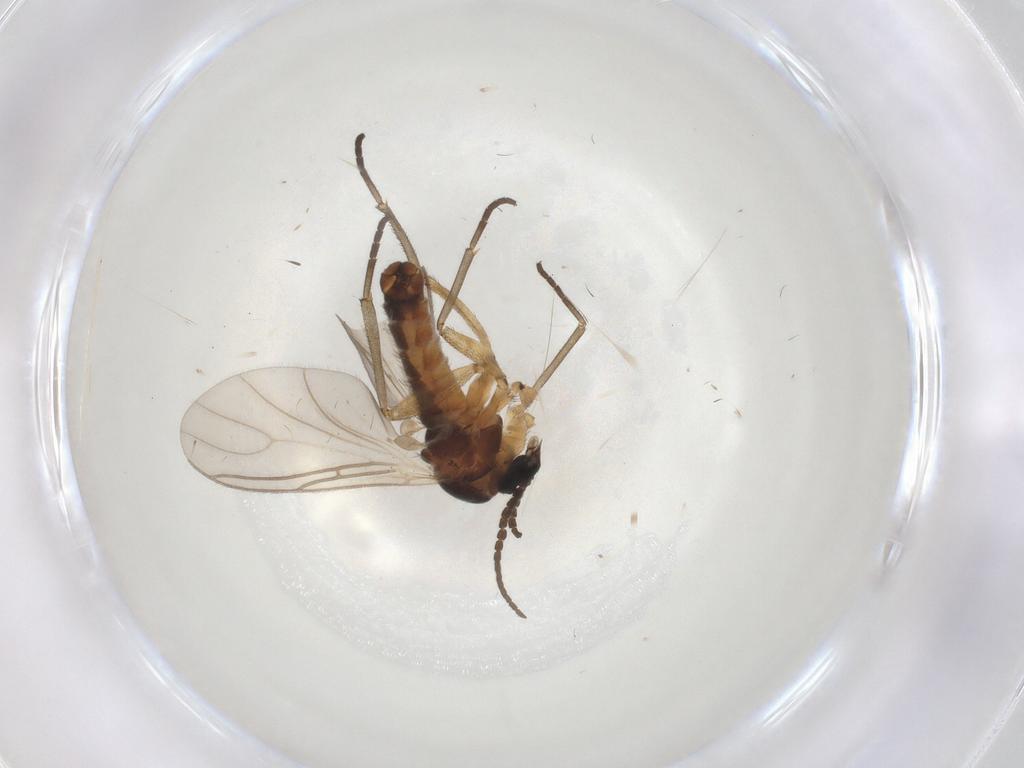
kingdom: Animalia
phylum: Arthropoda
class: Insecta
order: Diptera
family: Sciaridae
